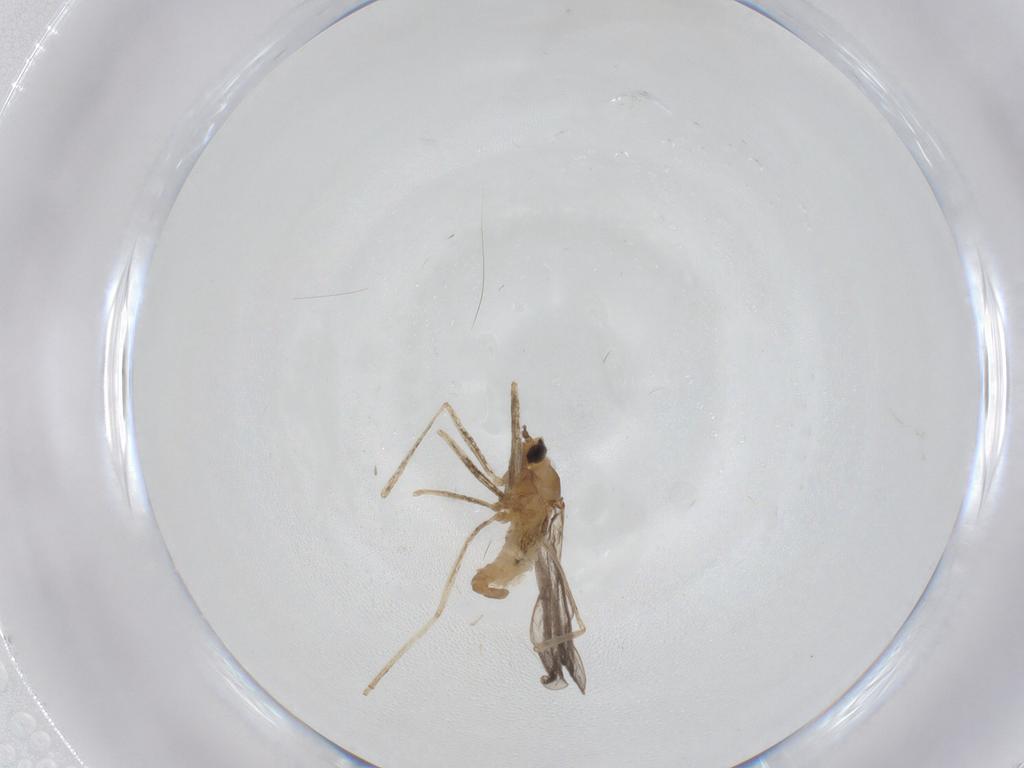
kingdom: Animalia
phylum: Arthropoda
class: Insecta
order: Diptera
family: Cecidomyiidae
